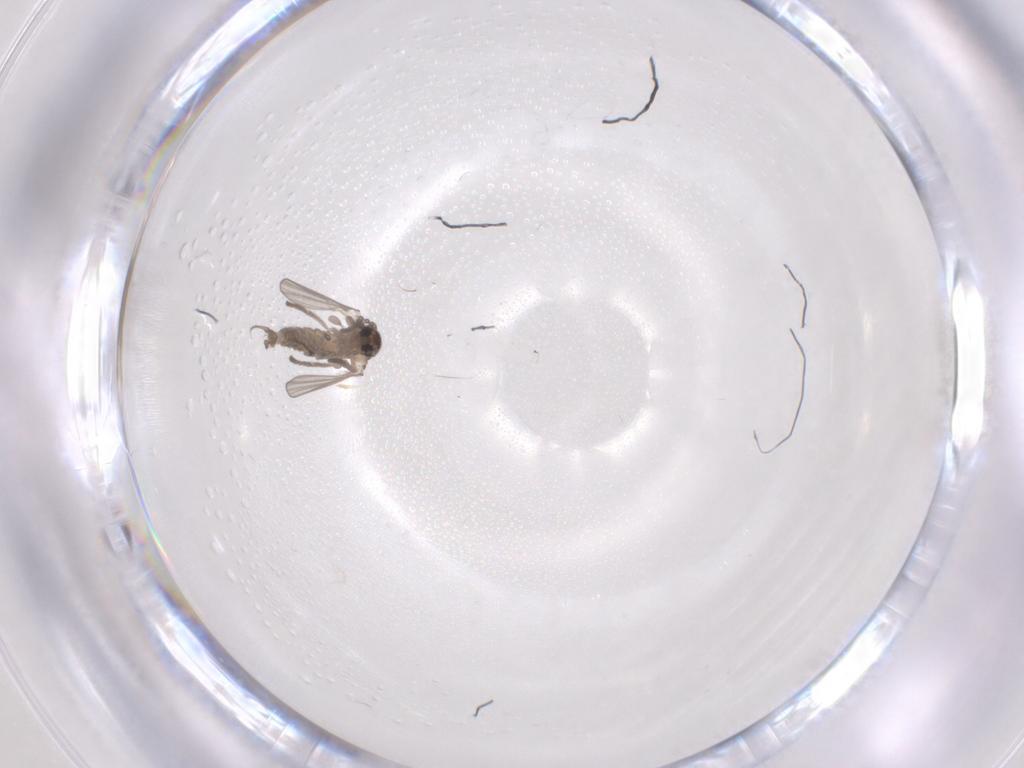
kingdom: Animalia
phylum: Arthropoda
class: Insecta
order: Diptera
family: Psychodidae
